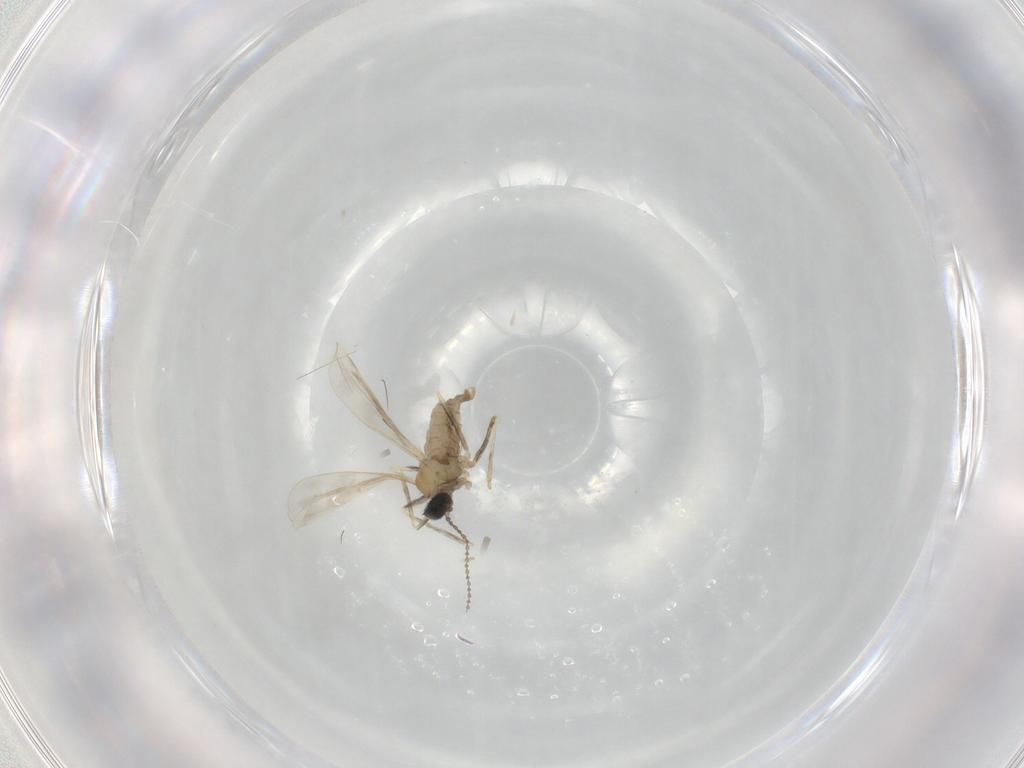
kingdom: Animalia
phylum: Arthropoda
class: Insecta
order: Diptera
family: Cecidomyiidae
